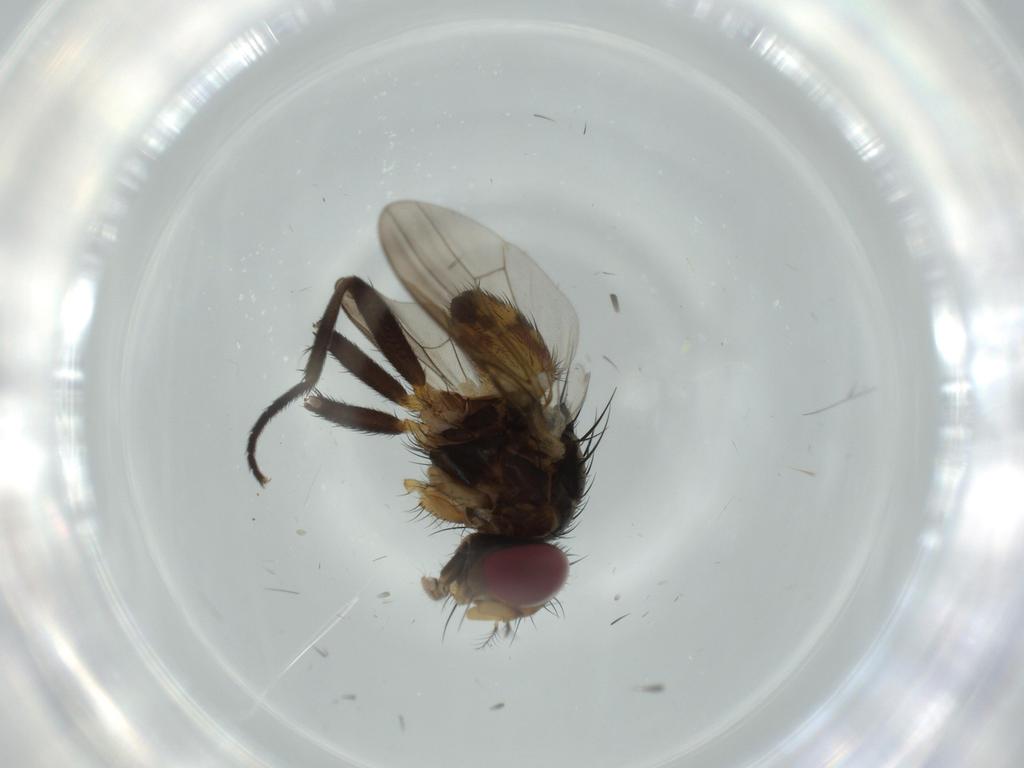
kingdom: Animalia
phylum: Arthropoda
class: Insecta
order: Diptera
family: Anthomyiidae
